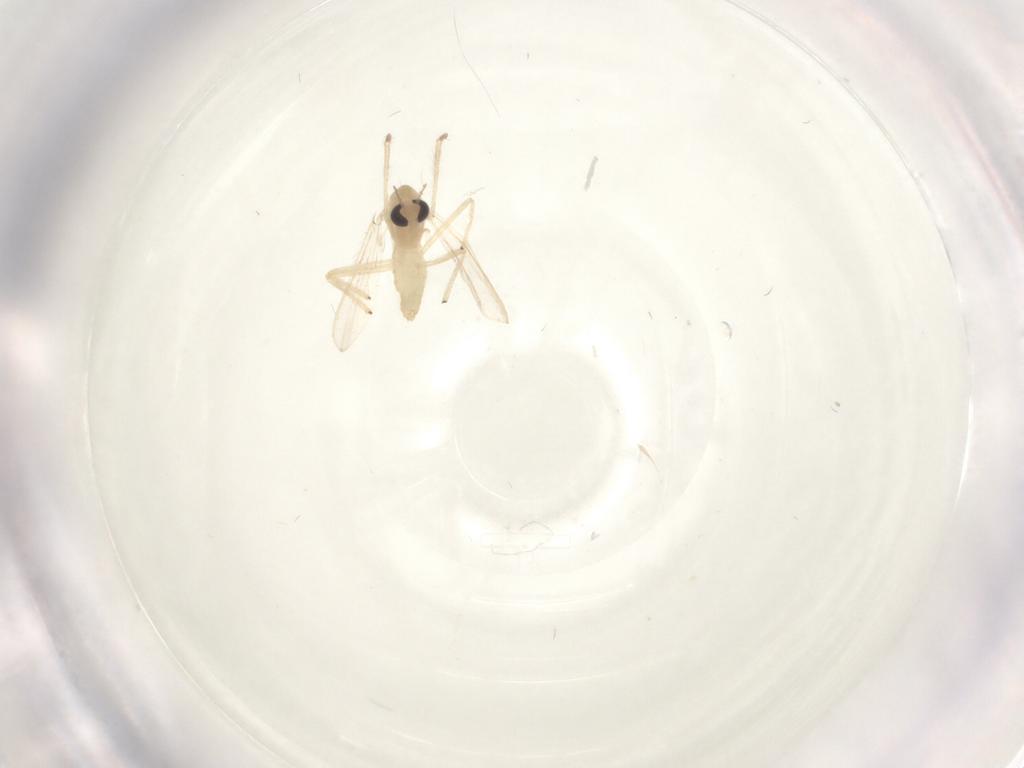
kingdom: Animalia
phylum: Arthropoda
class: Insecta
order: Diptera
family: Chironomidae
